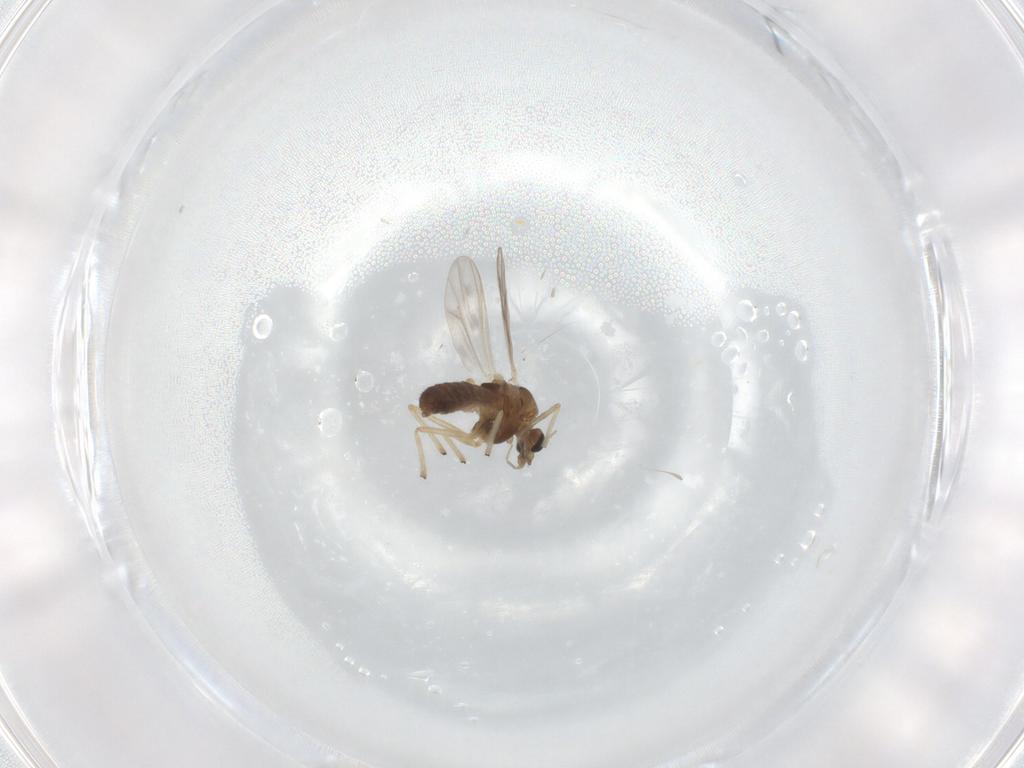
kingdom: Animalia
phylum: Arthropoda
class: Insecta
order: Diptera
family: Chironomidae
